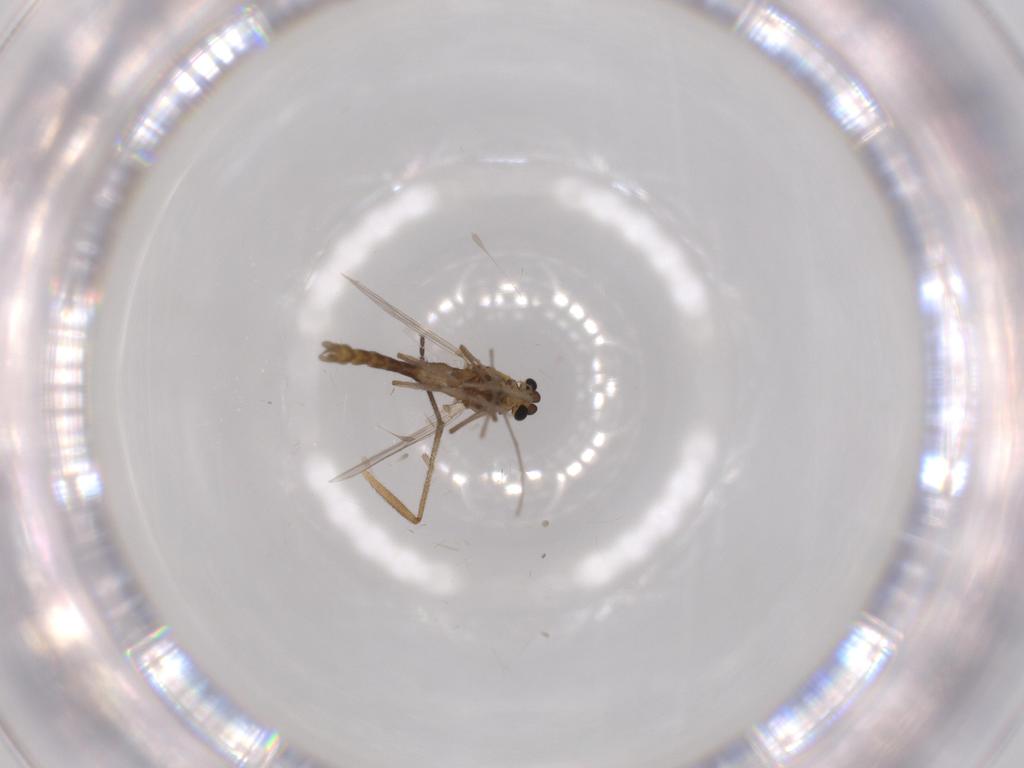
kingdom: Animalia
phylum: Arthropoda
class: Insecta
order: Diptera
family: Chironomidae
